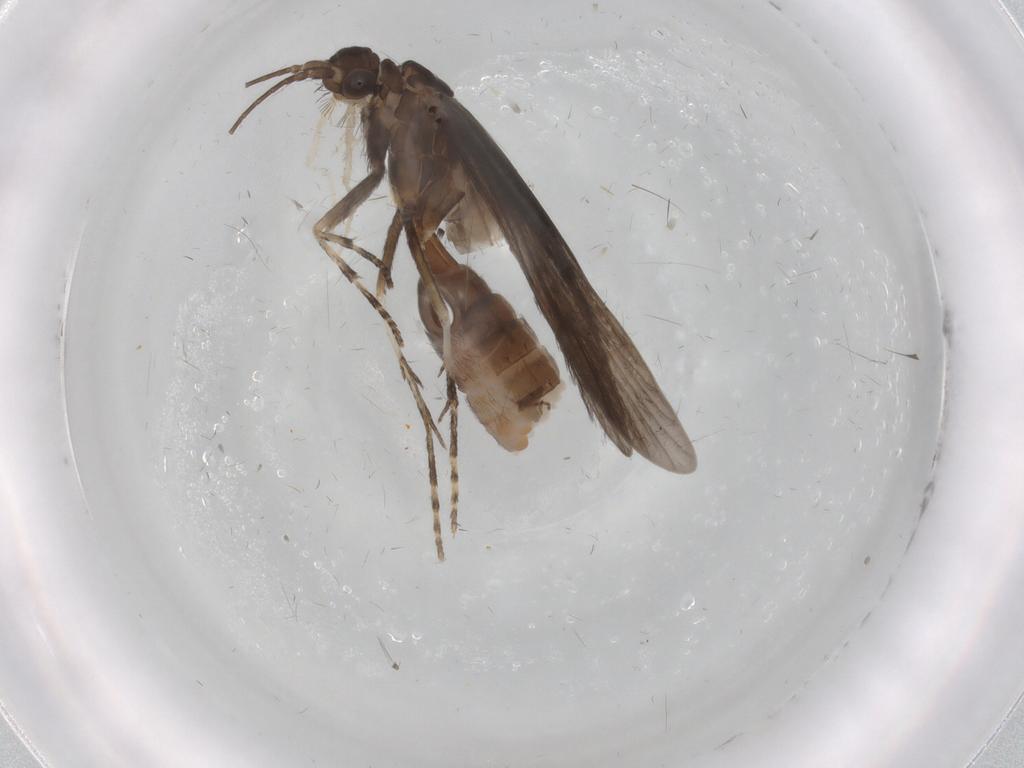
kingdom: Animalia
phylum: Arthropoda
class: Insecta
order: Trichoptera
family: Xiphocentronidae
